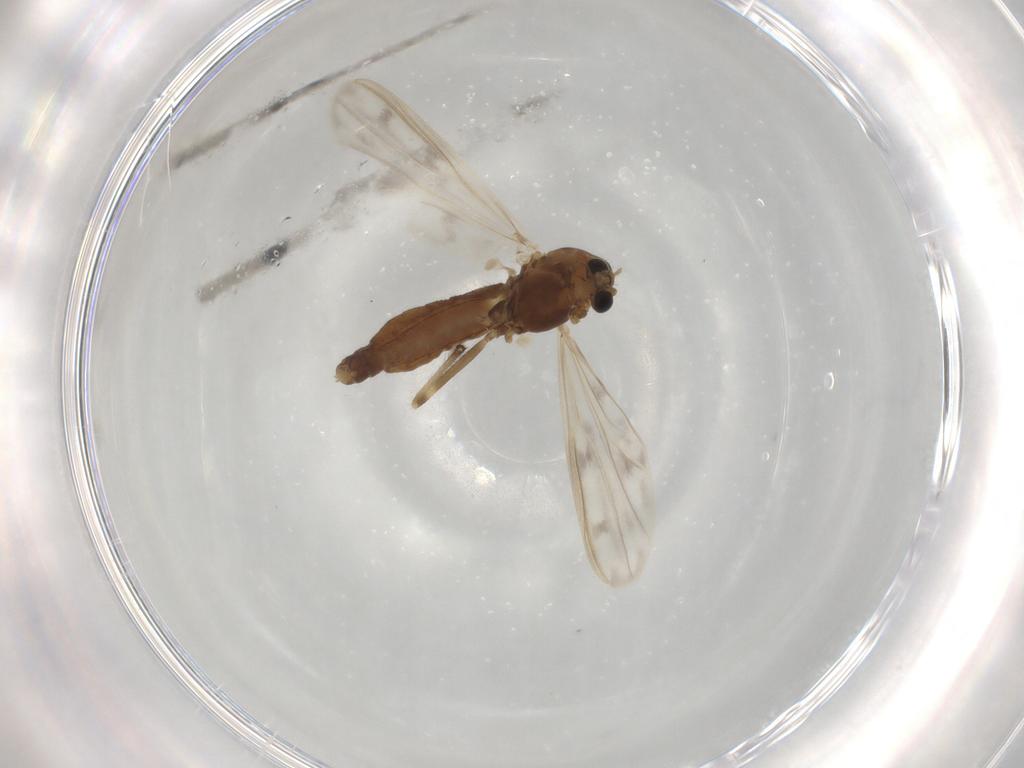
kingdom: Animalia
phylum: Arthropoda
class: Insecta
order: Diptera
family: Chironomidae
